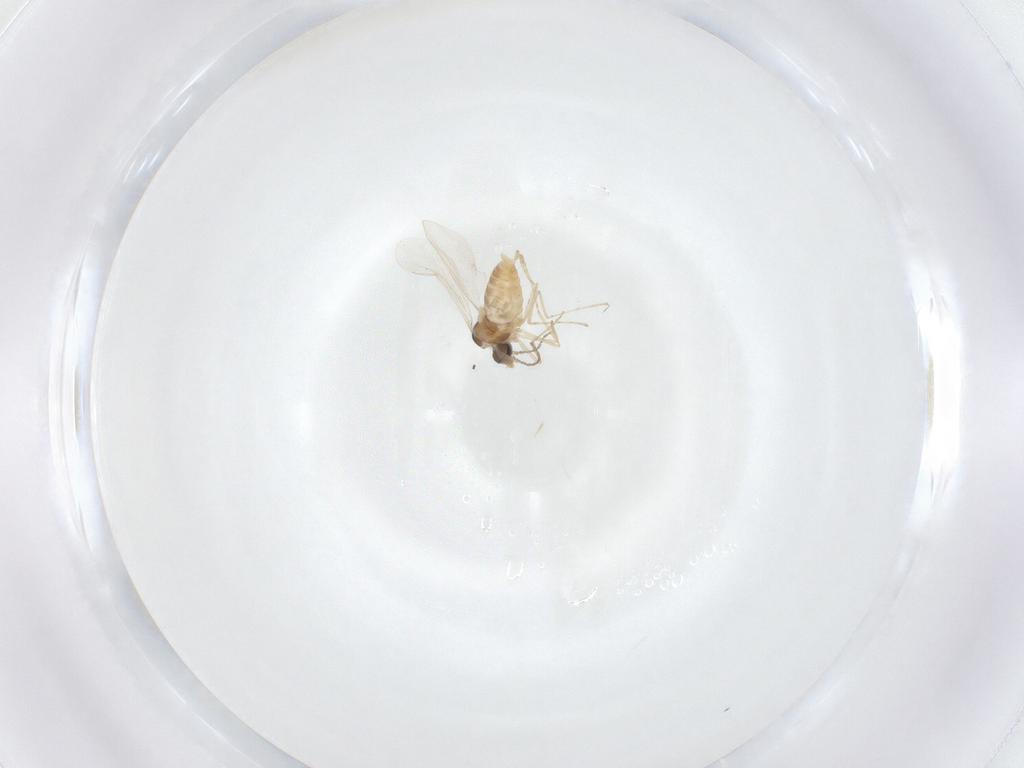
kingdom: Animalia
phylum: Arthropoda
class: Insecta
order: Diptera
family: Cecidomyiidae
